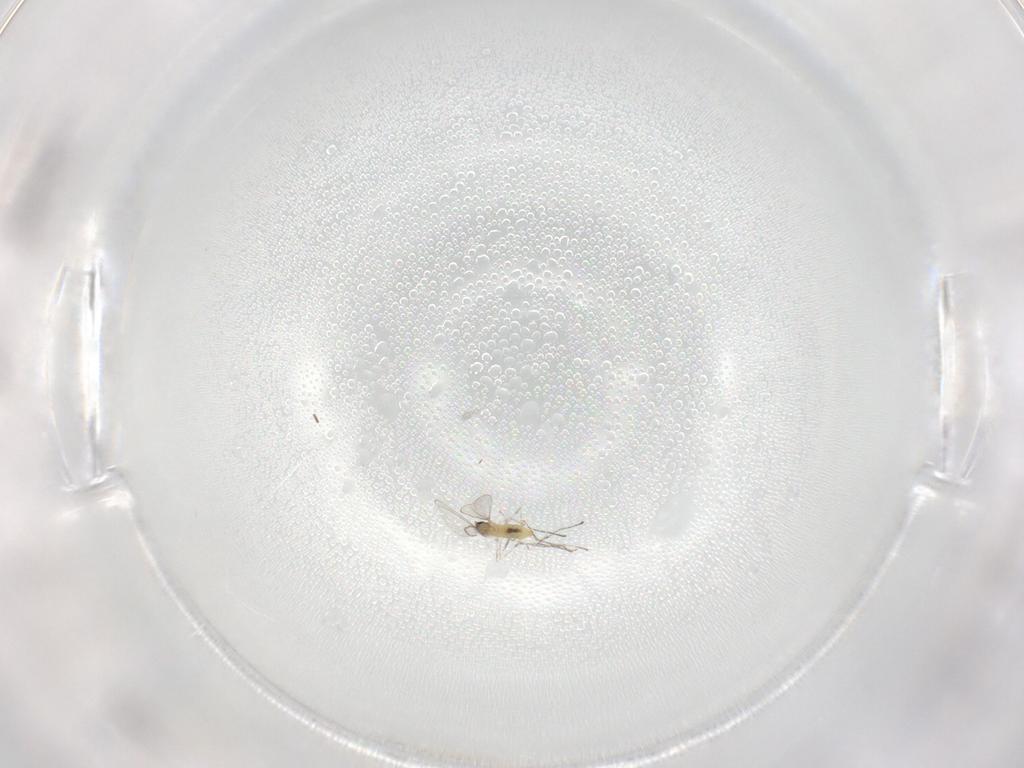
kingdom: Animalia
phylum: Arthropoda
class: Insecta
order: Diptera
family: Cecidomyiidae
